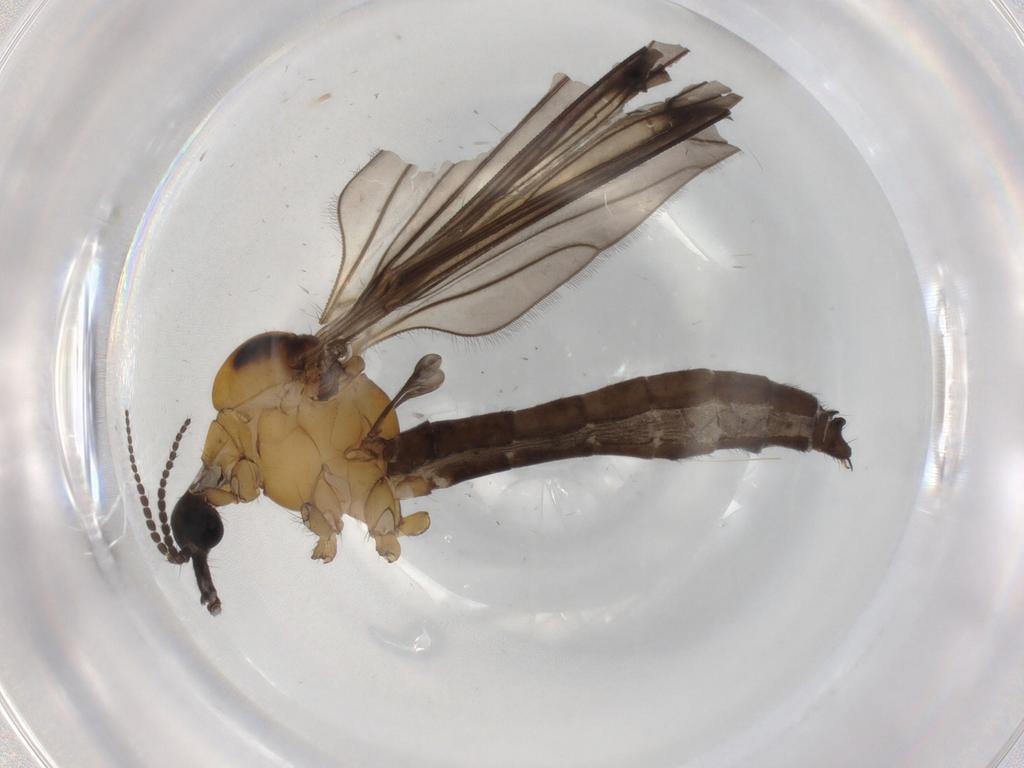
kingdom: Animalia
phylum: Arthropoda
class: Insecta
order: Diptera
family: Limoniidae
